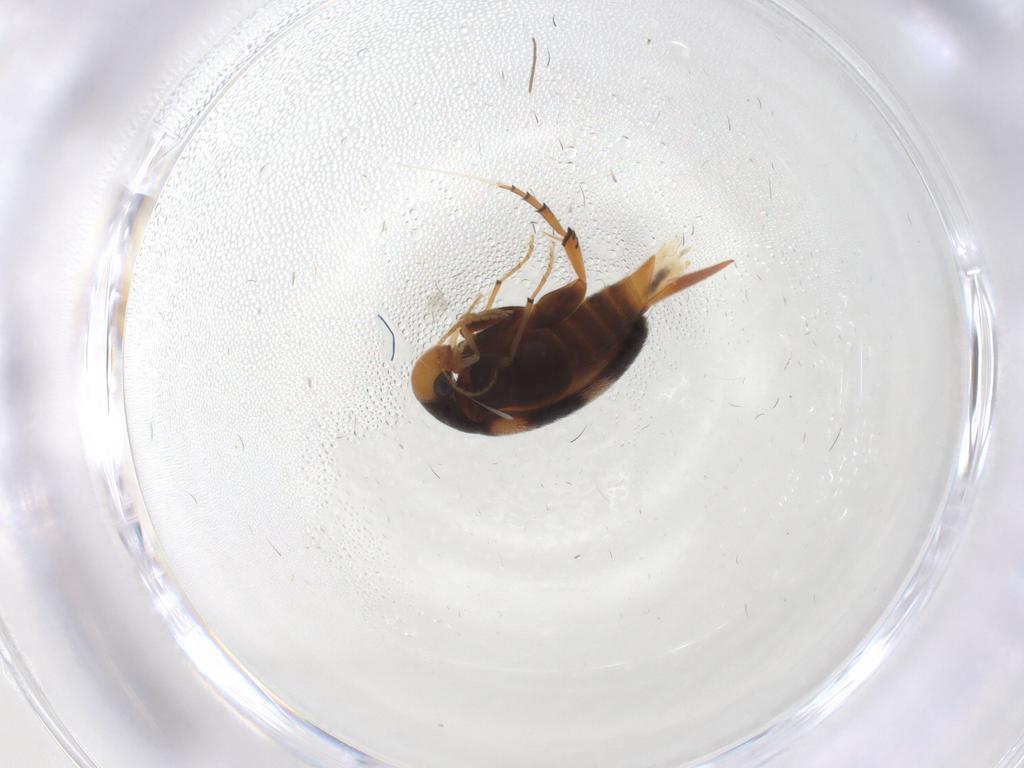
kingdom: Animalia
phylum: Arthropoda
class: Insecta
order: Coleoptera
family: Mordellidae
